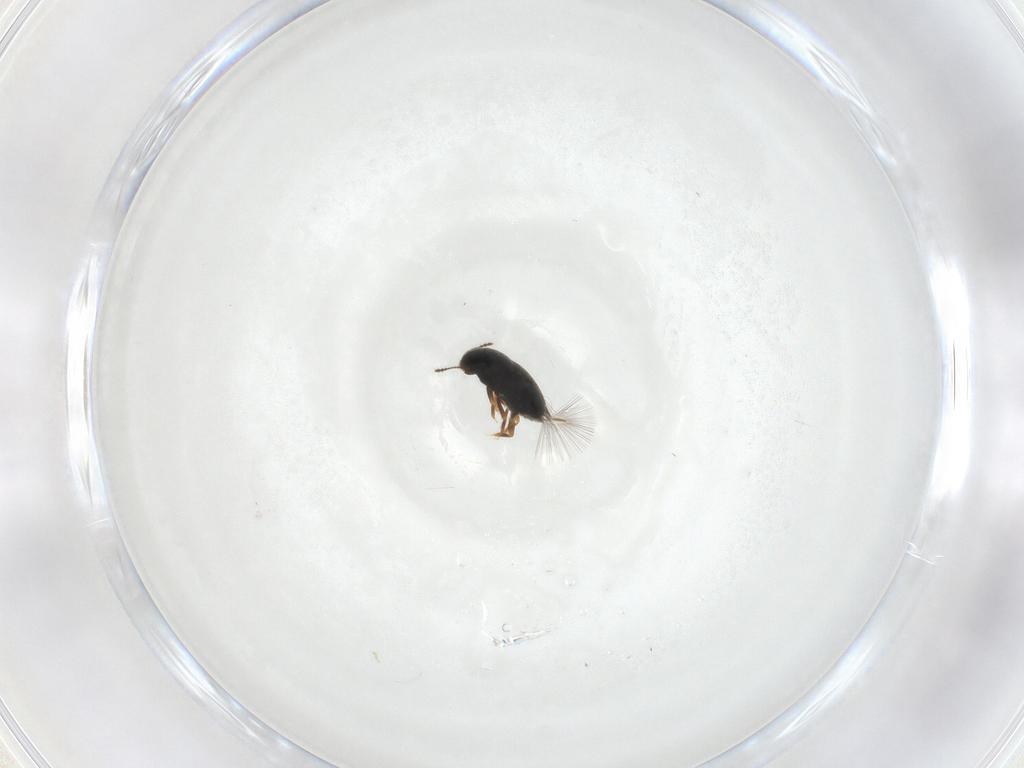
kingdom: Animalia
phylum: Arthropoda
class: Insecta
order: Coleoptera
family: Ptiliidae
